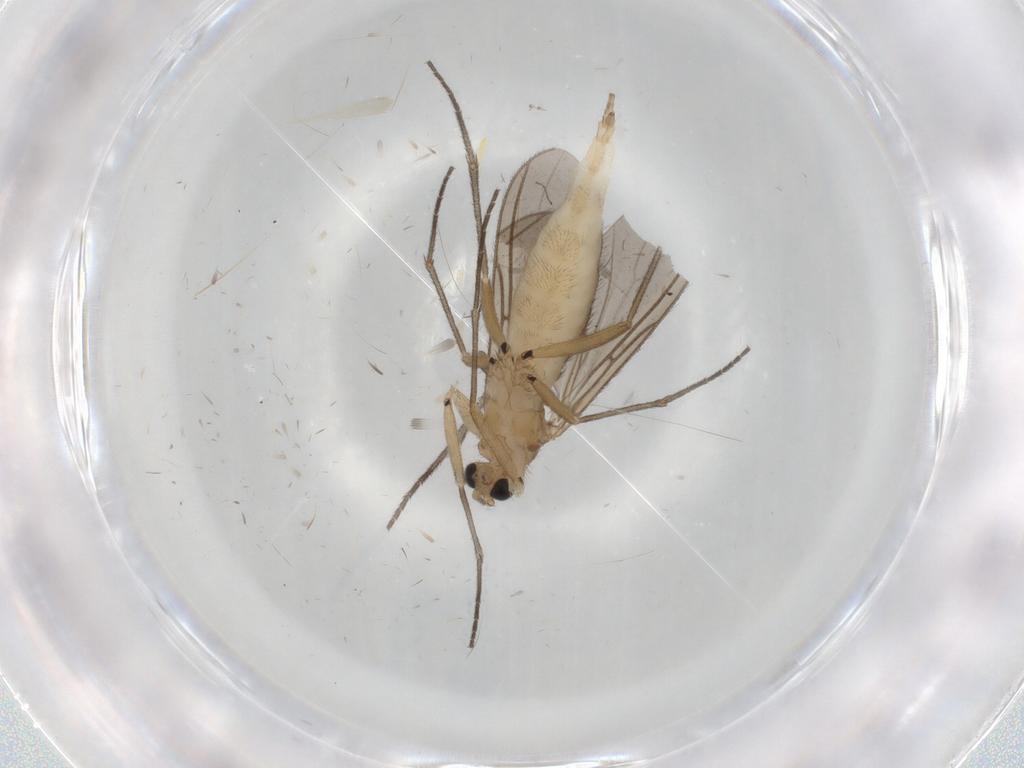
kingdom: Animalia
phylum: Arthropoda
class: Insecta
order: Diptera
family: Sciaridae
